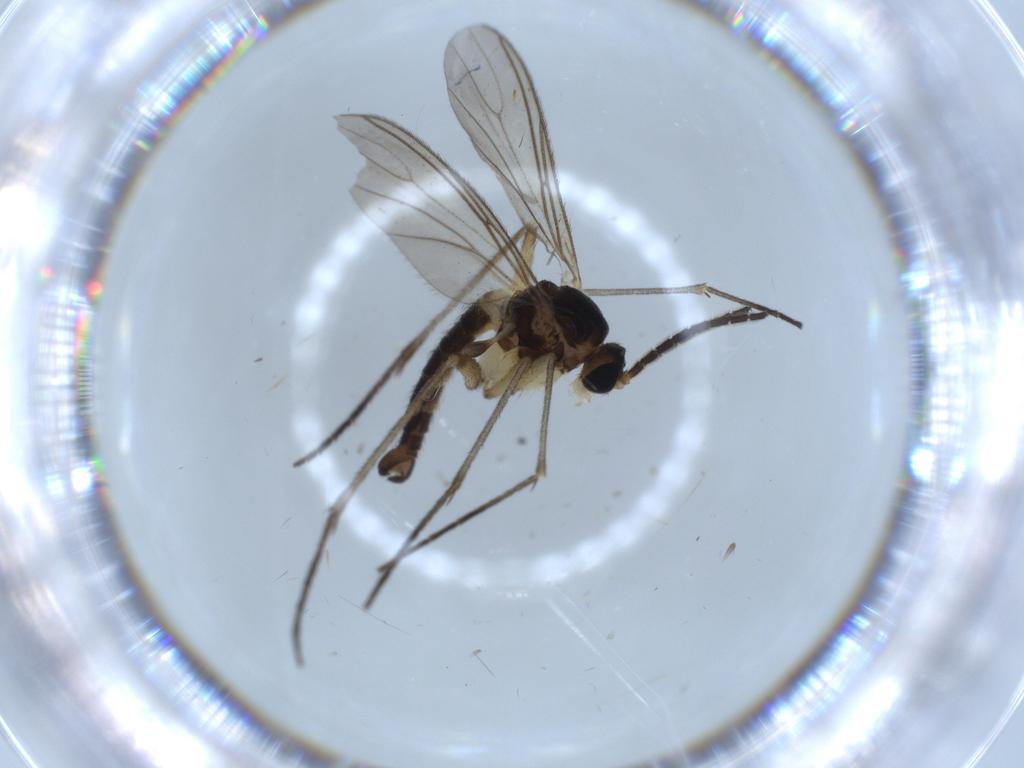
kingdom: Animalia
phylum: Arthropoda
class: Insecta
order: Diptera
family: Sciaridae
